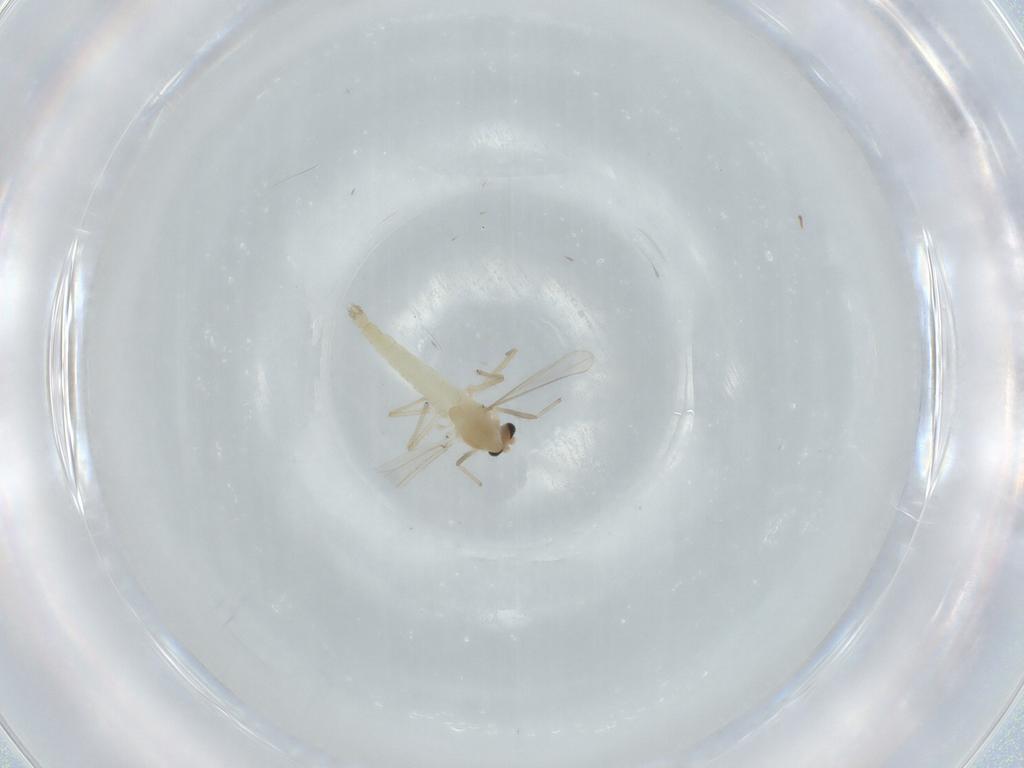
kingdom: Animalia
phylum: Arthropoda
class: Insecta
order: Diptera
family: Chironomidae
